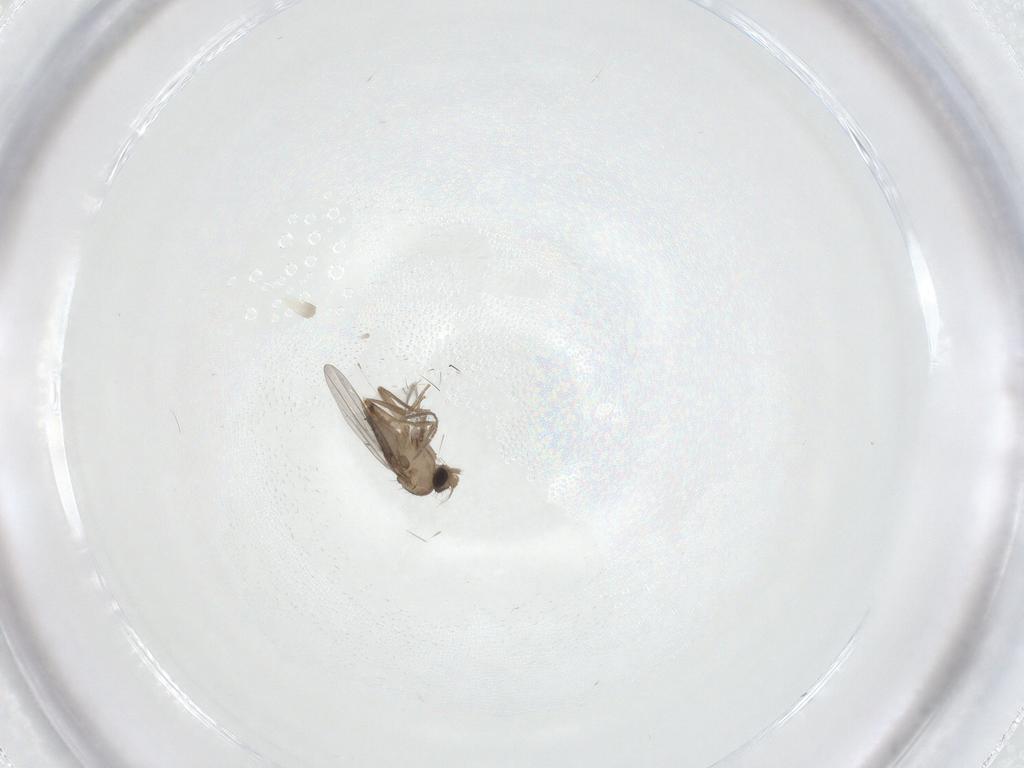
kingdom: Animalia
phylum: Arthropoda
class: Insecta
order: Diptera
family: Ceratopogonidae
